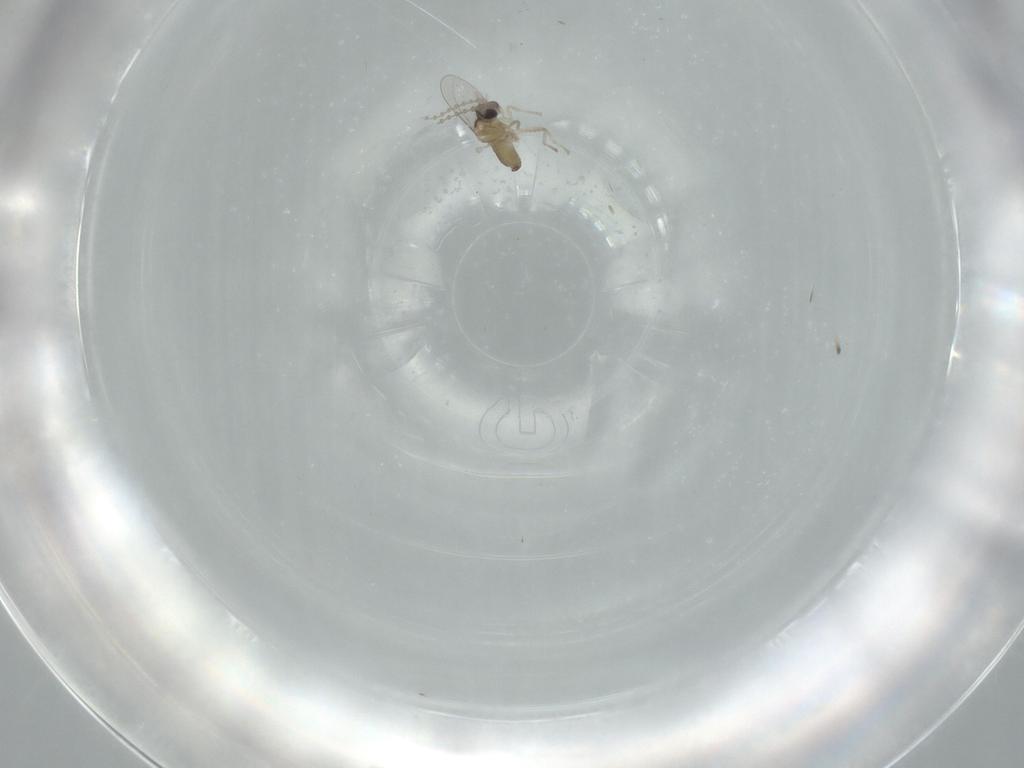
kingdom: Animalia
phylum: Arthropoda
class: Insecta
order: Diptera
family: Cecidomyiidae
